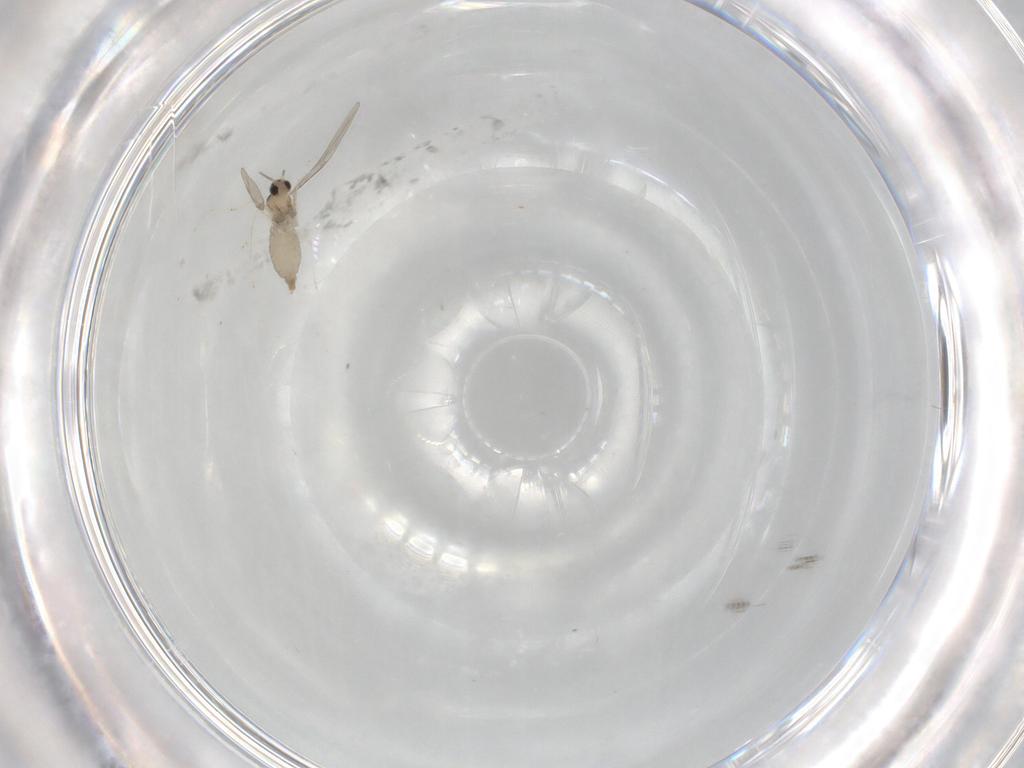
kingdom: Animalia
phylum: Arthropoda
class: Insecta
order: Diptera
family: Cecidomyiidae
